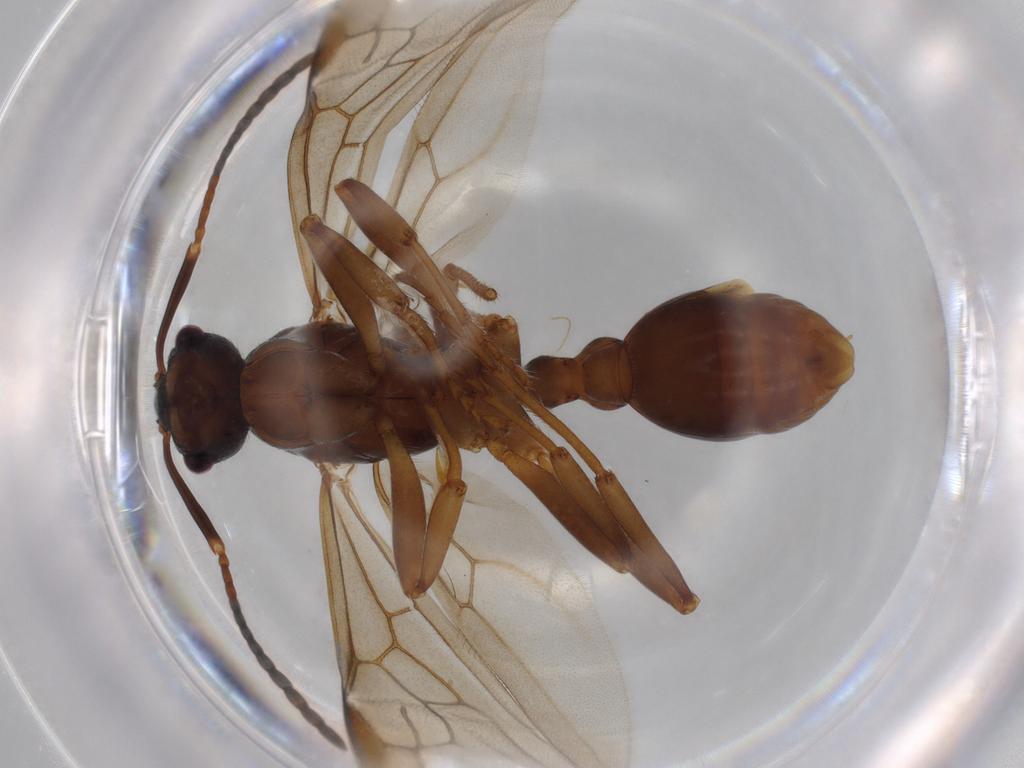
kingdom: Animalia
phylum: Arthropoda
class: Insecta
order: Hymenoptera
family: Formicidae
